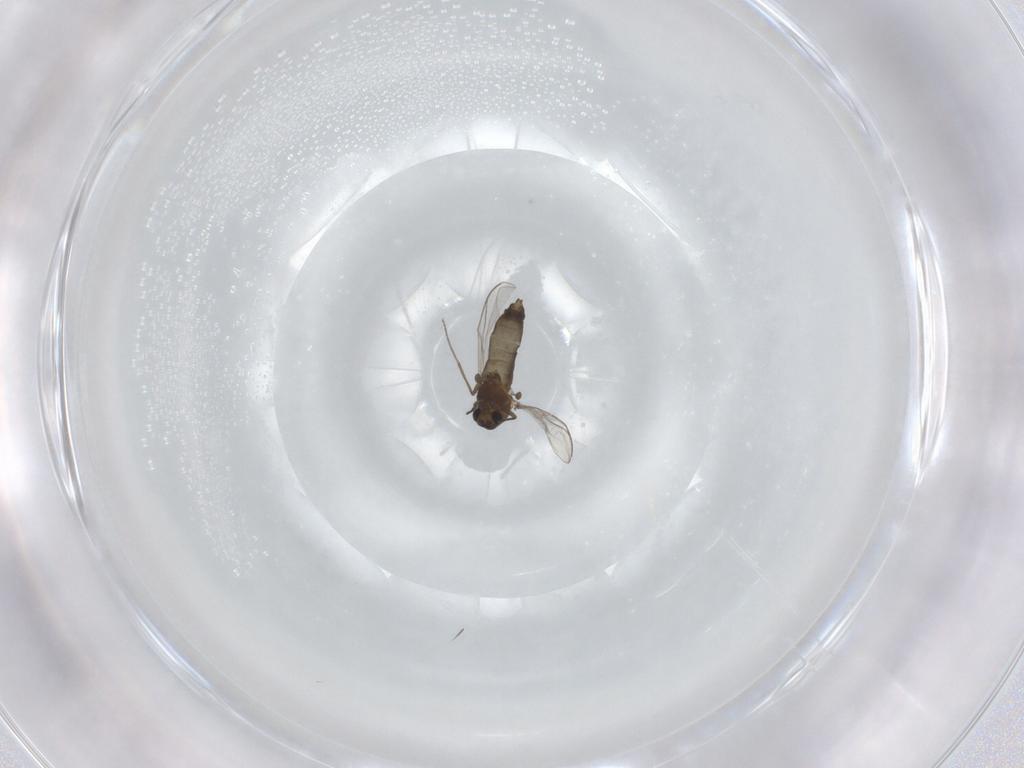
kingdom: Animalia
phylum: Arthropoda
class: Insecta
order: Diptera
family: Chironomidae
